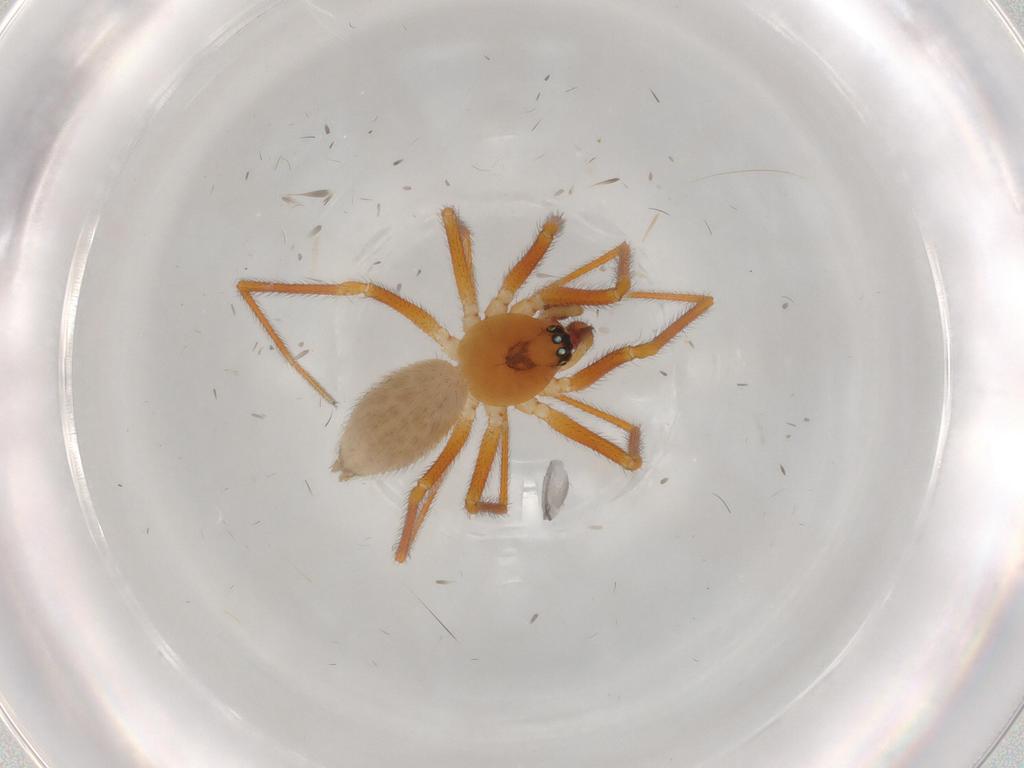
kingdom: Animalia
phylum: Arthropoda
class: Arachnida
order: Araneae
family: Linyphiidae
